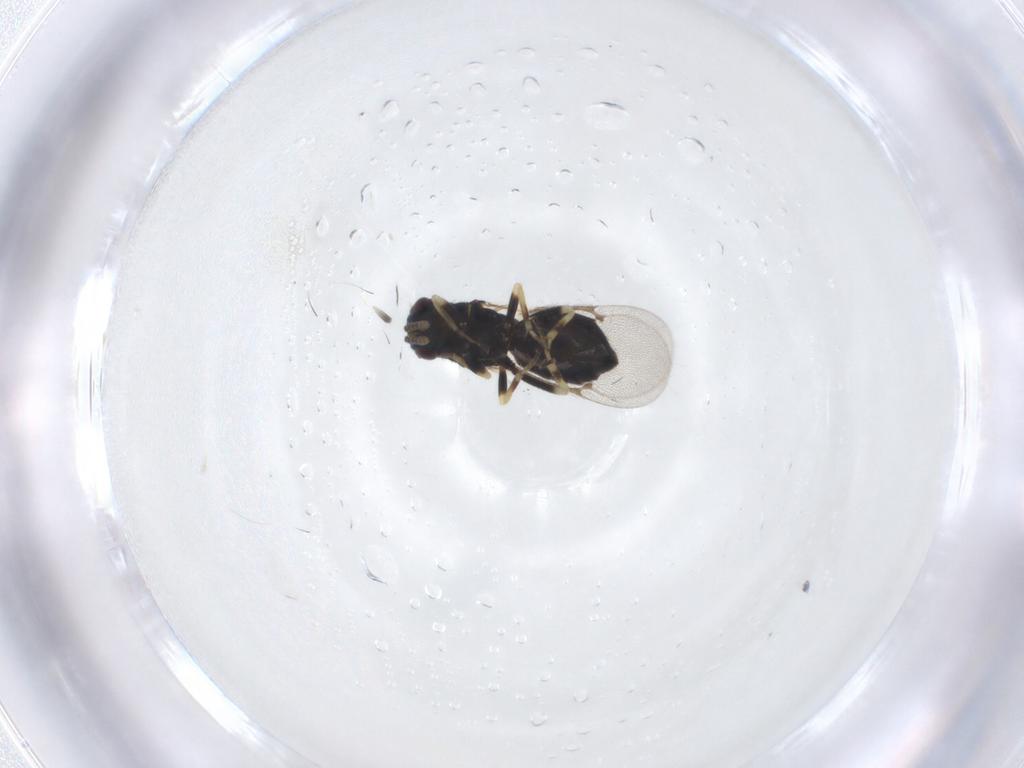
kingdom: Animalia
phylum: Arthropoda
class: Insecta
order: Hymenoptera
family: Eulophidae
